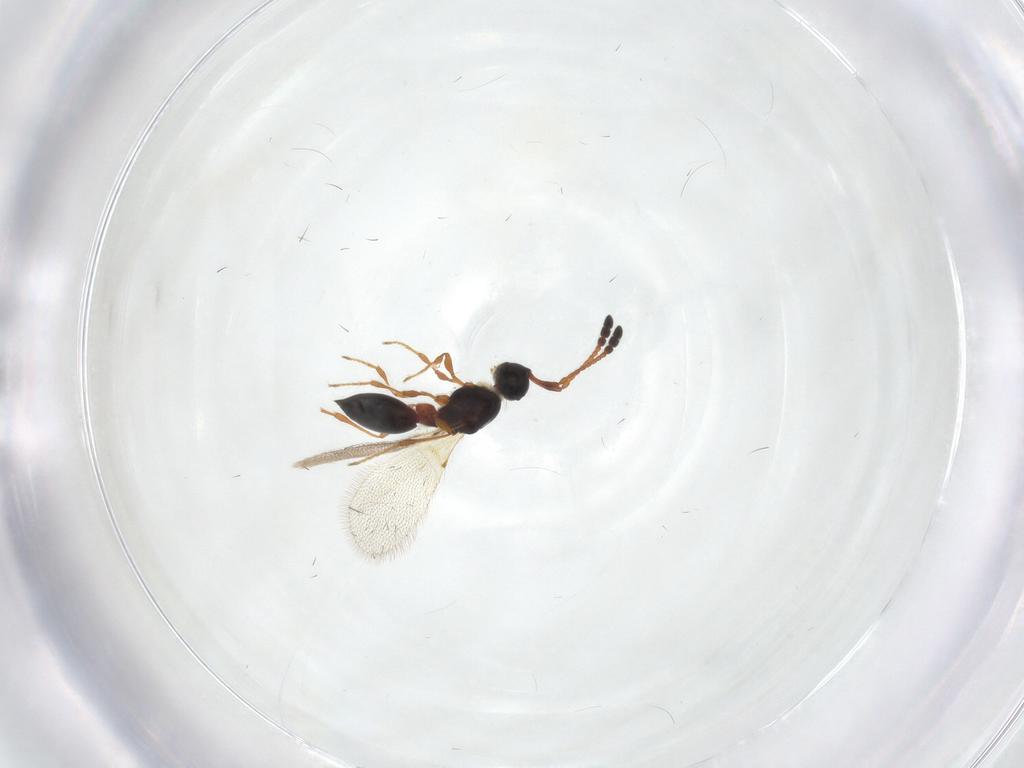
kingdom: Animalia
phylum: Arthropoda
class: Insecta
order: Hymenoptera
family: Diapriidae
